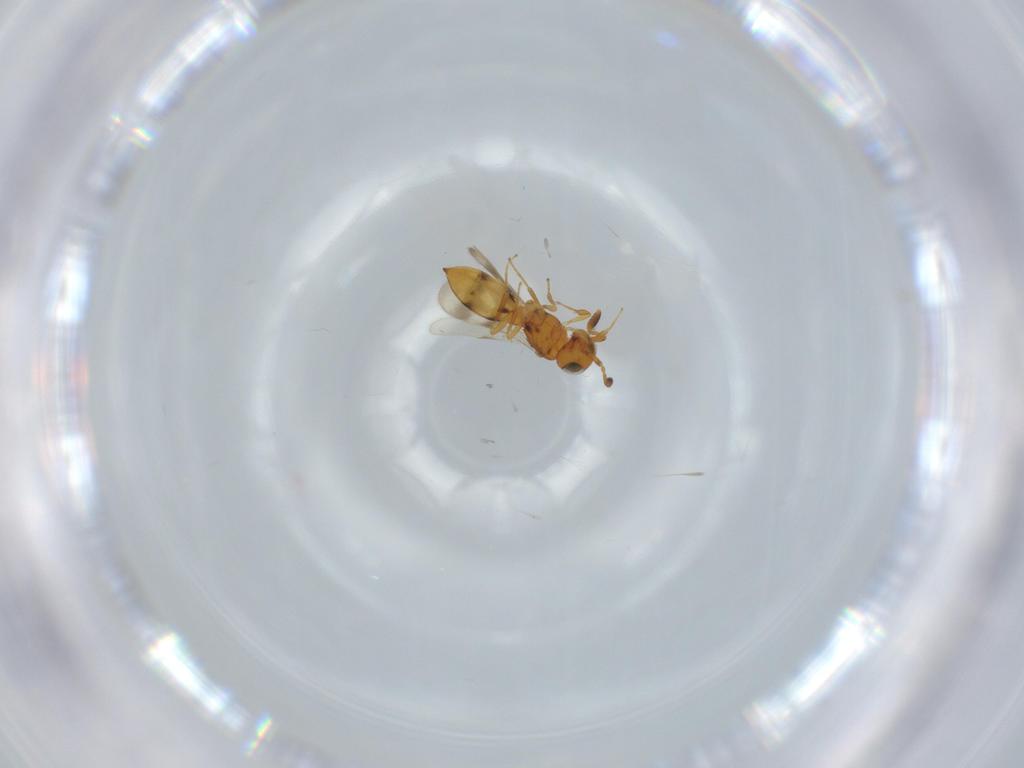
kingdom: Animalia
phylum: Arthropoda
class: Insecta
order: Hymenoptera
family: Scelionidae
